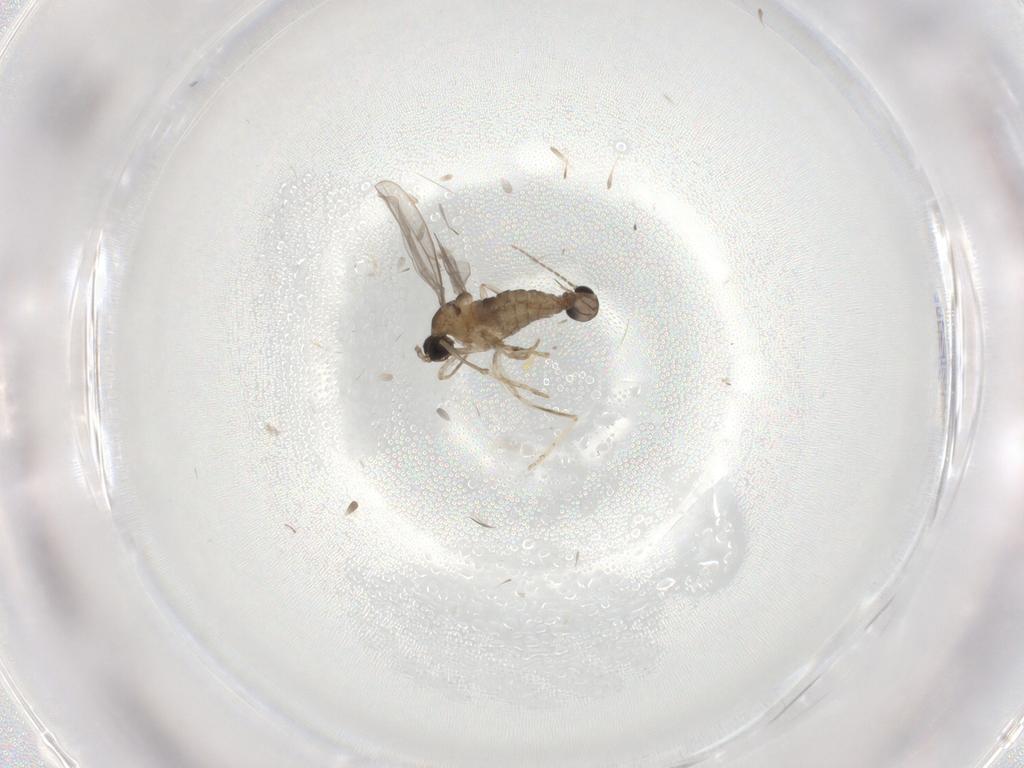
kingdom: Animalia
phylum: Arthropoda
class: Insecta
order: Diptera
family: Cecidomyiidae
